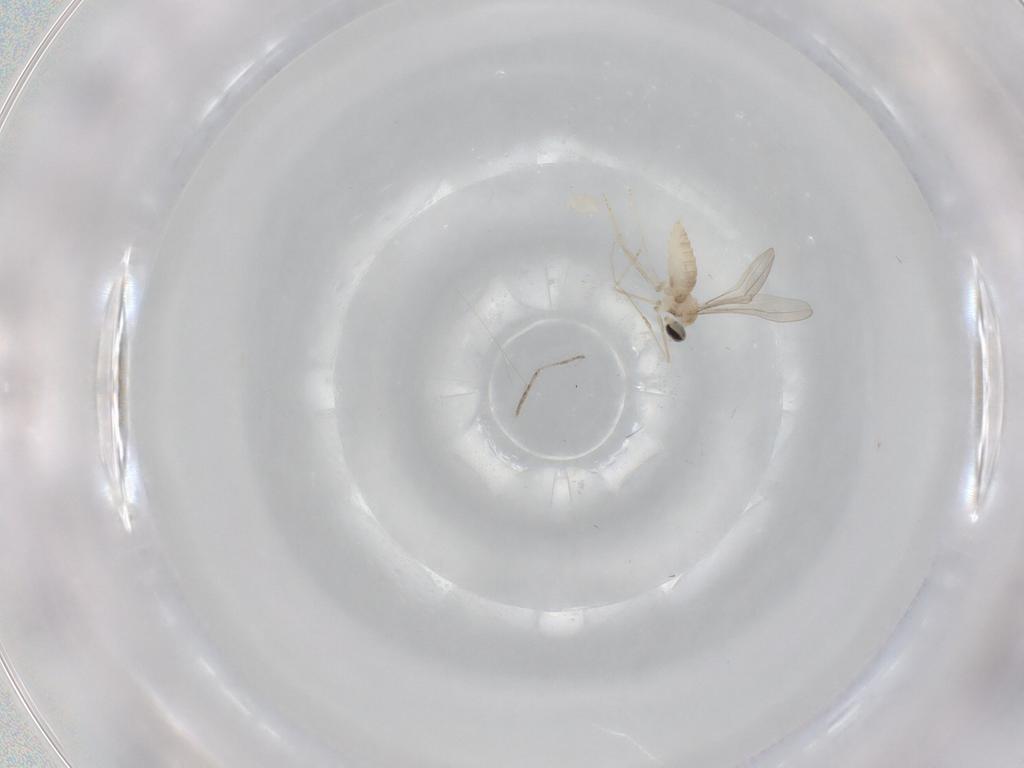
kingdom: Animalia
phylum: Arthropoda
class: Insecta
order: Diptera
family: Cecidomyiidae
